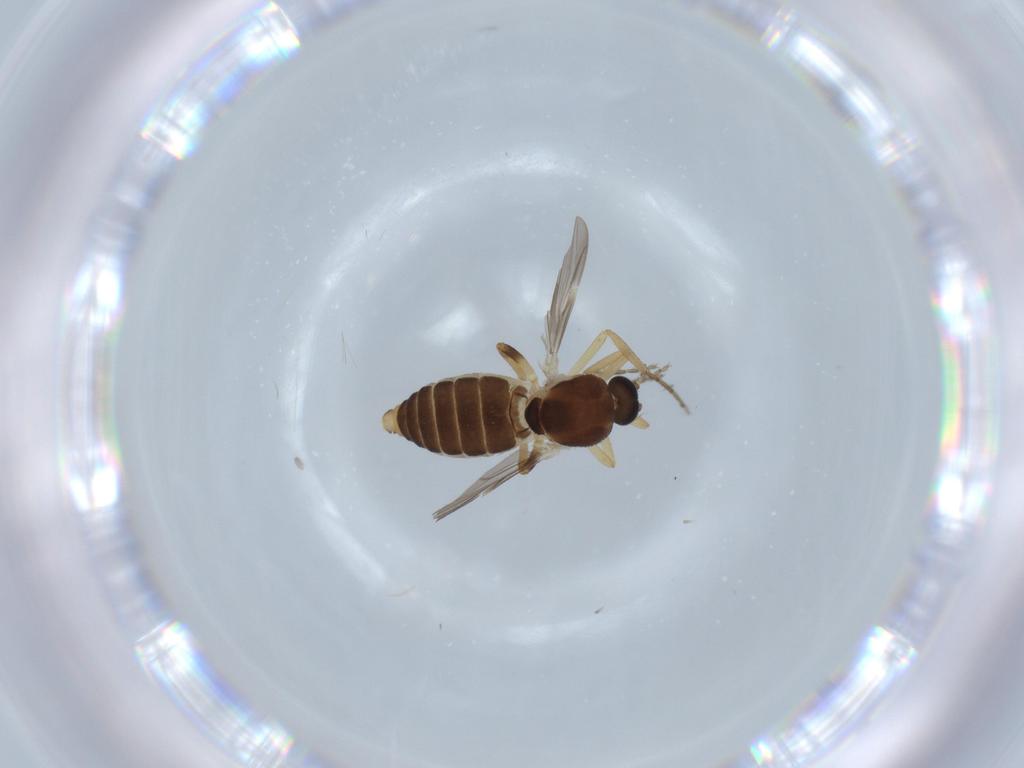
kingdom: Animalia
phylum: Arthropoda
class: Insecta
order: Diptera
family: Ceratopogonidae
